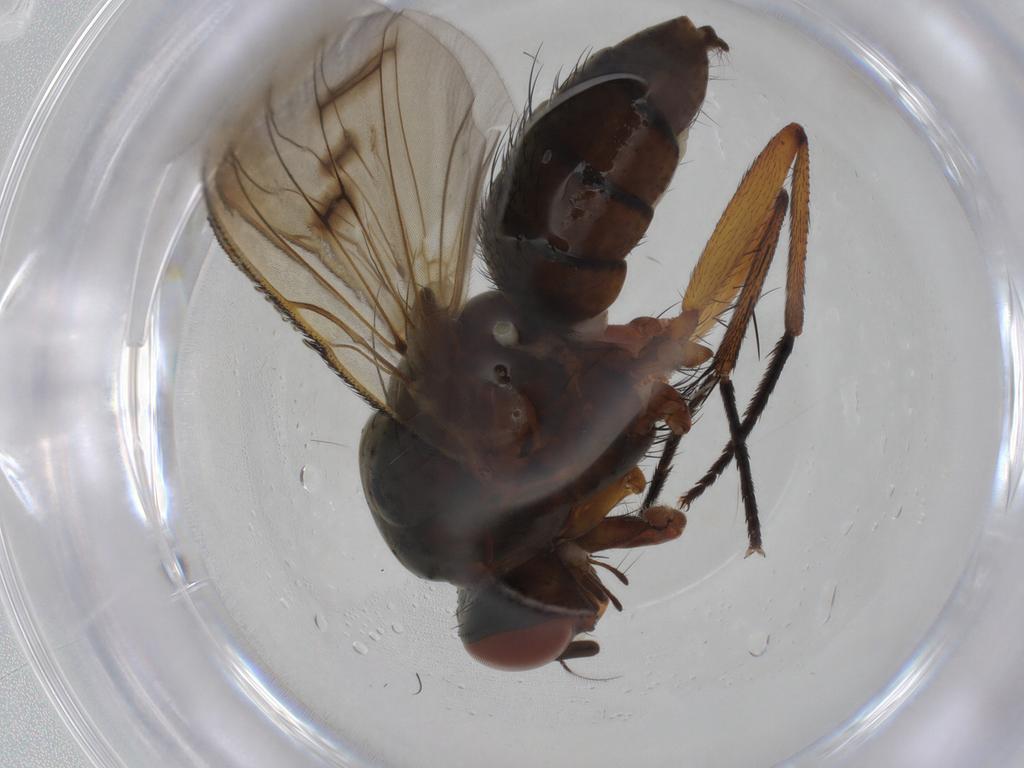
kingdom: Animalia
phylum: Arthropoda
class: Insecta
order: Diptera
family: Anthomyiidae
